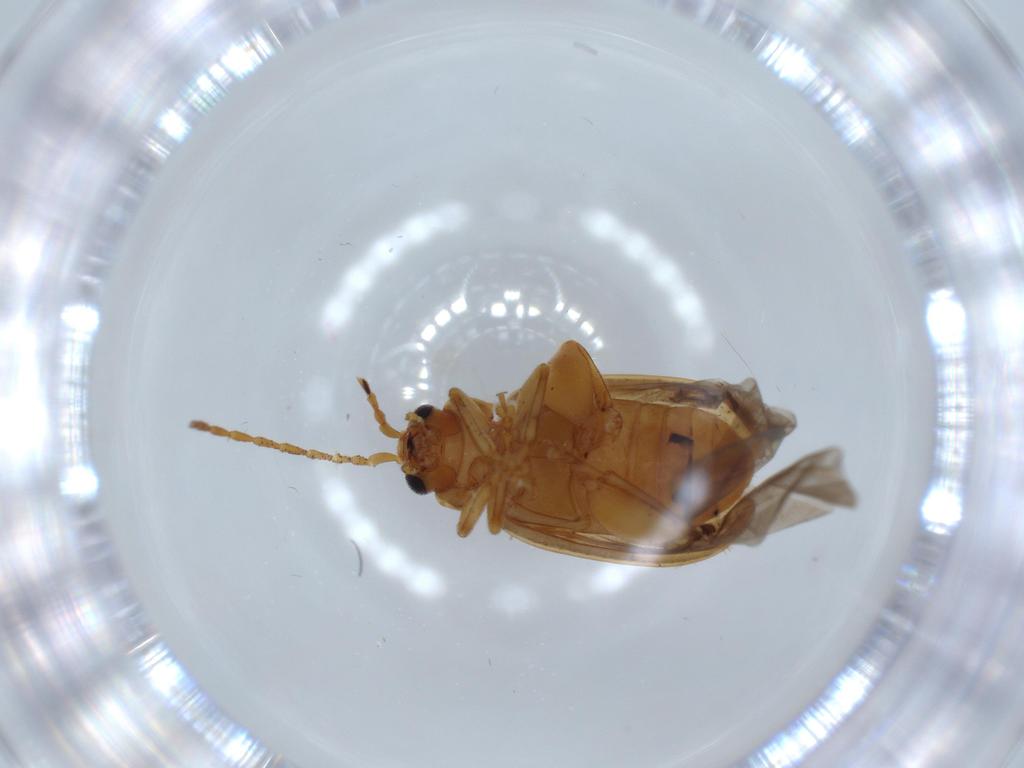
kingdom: Animalia
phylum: Arthropoda
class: Insecta
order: Coleoptera
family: Chrysomelidae
